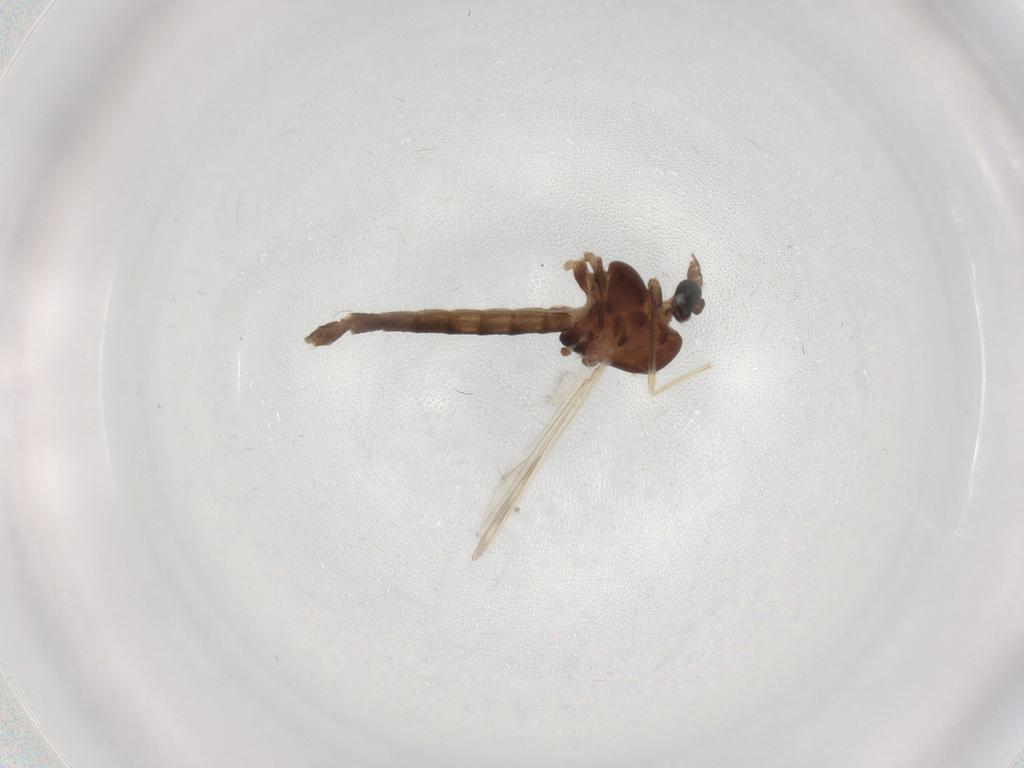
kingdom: Animalia
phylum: Arthropoda
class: Insecta
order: Diptera
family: Chironomidae
